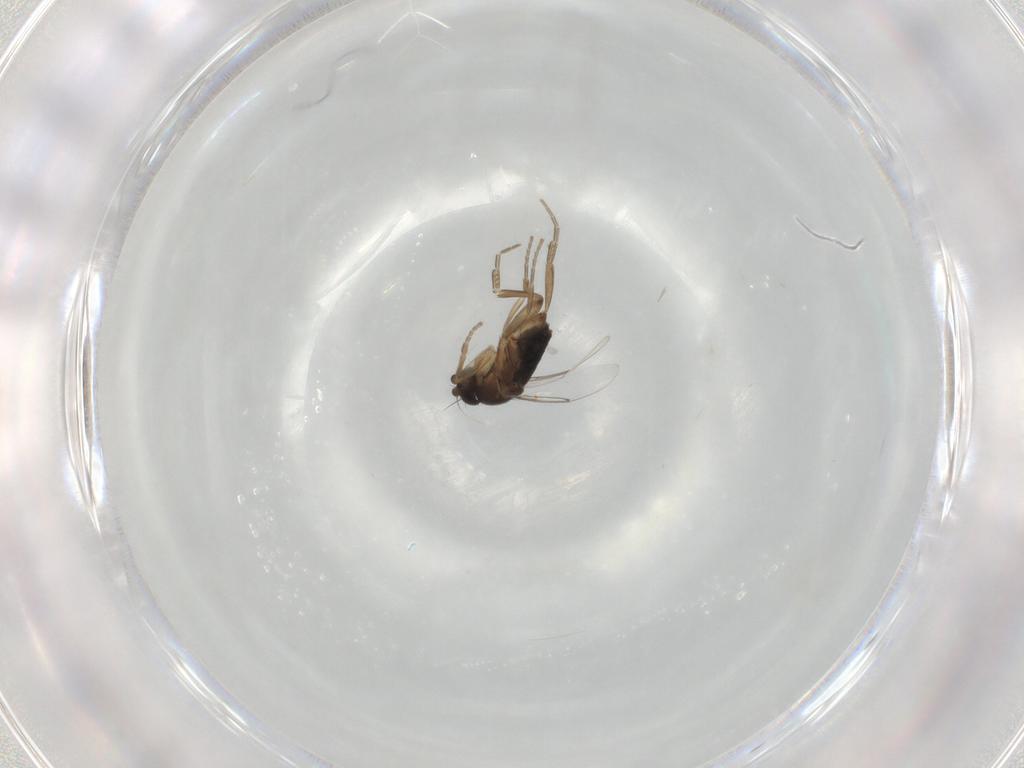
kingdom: Animalia
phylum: Arthropoda
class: Insecta
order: Diptera
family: Phoridae
